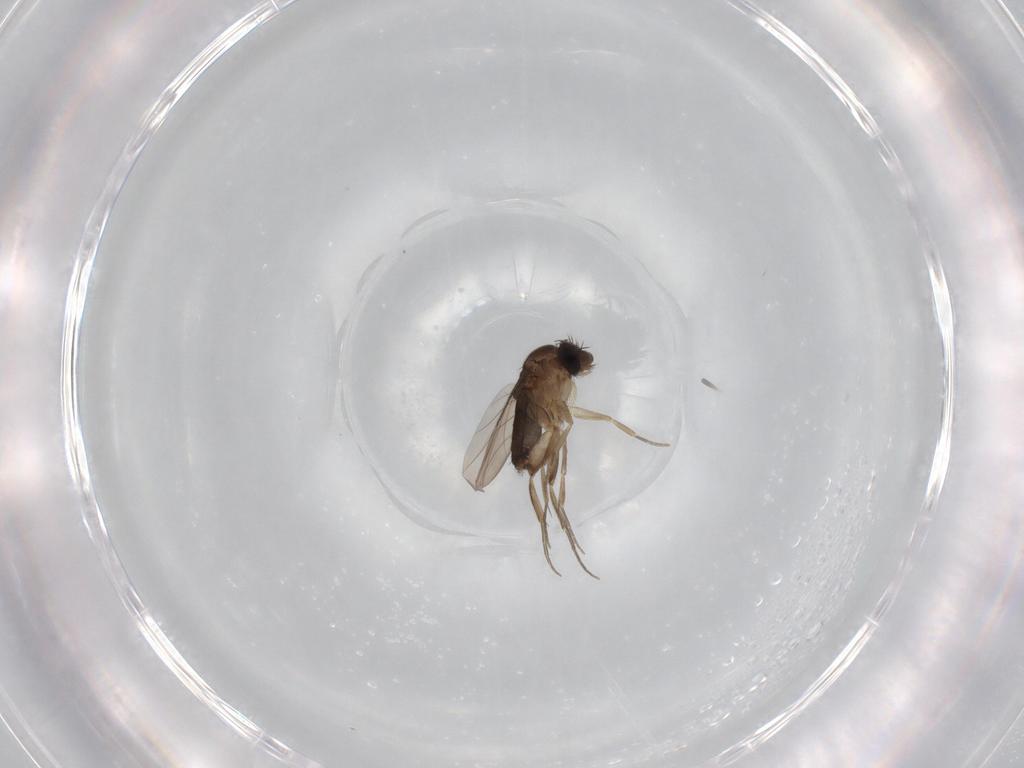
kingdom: Animalia
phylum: Arthropoda
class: Insecta
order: Diptera
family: Phoridae
